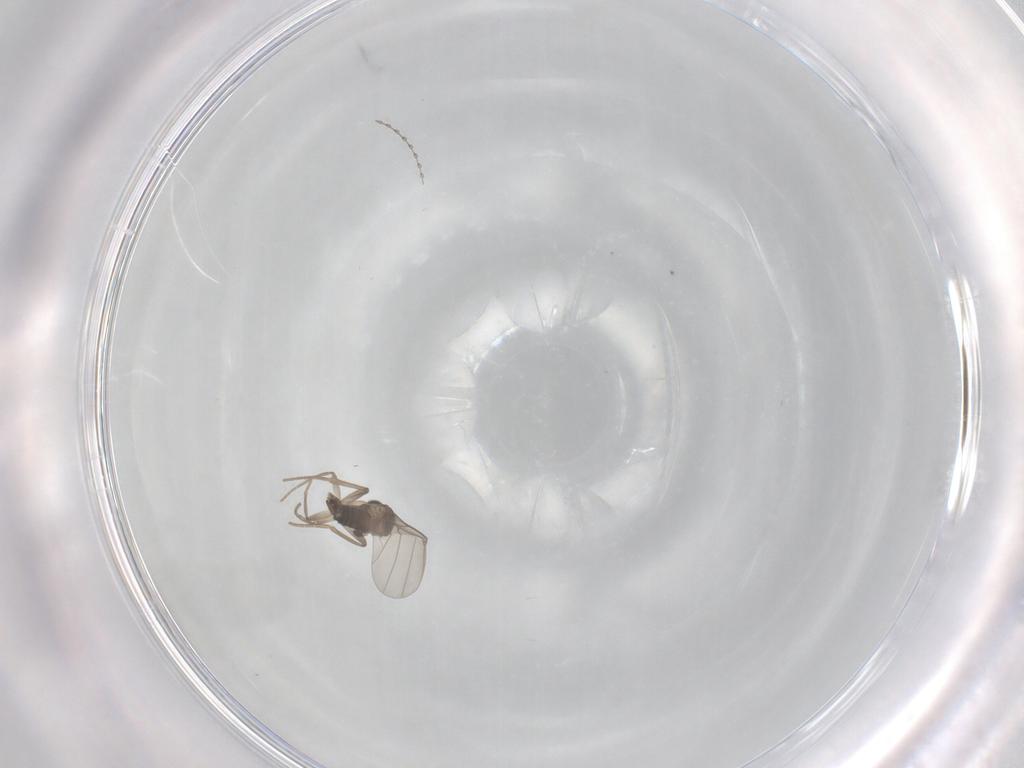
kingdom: Animalia
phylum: Arthropoda
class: Insecta
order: Diptera
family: Phoridae
